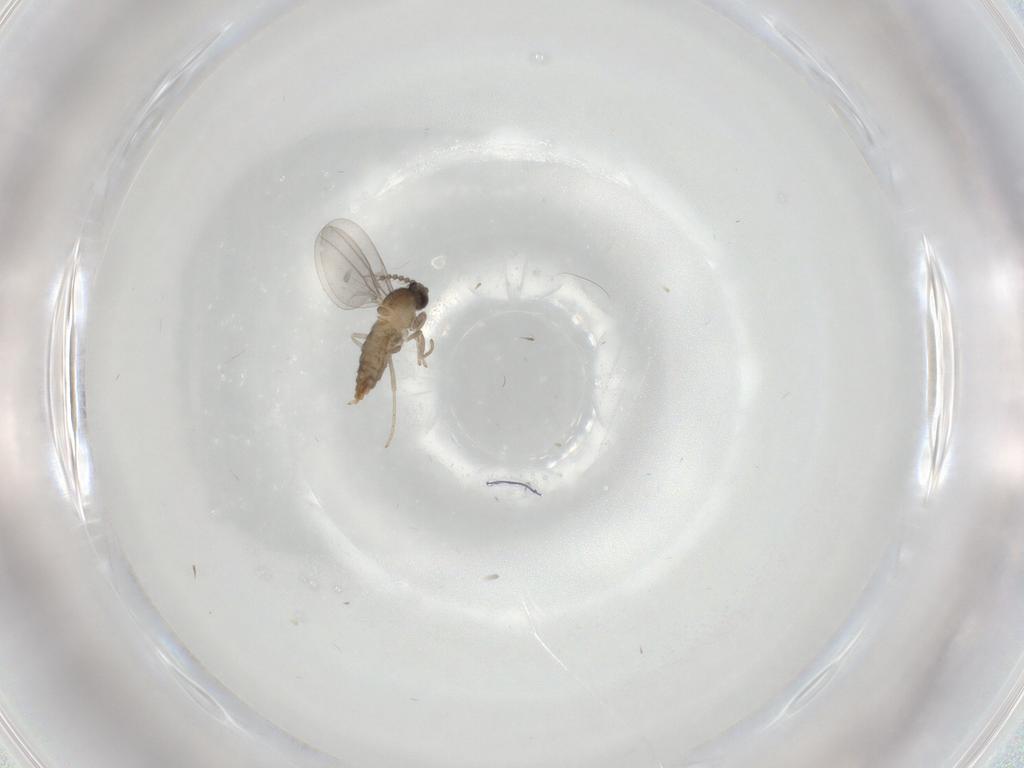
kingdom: Animalia
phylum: Arthropoda
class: Insecta
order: Diptera
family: Cecidomyiidae
